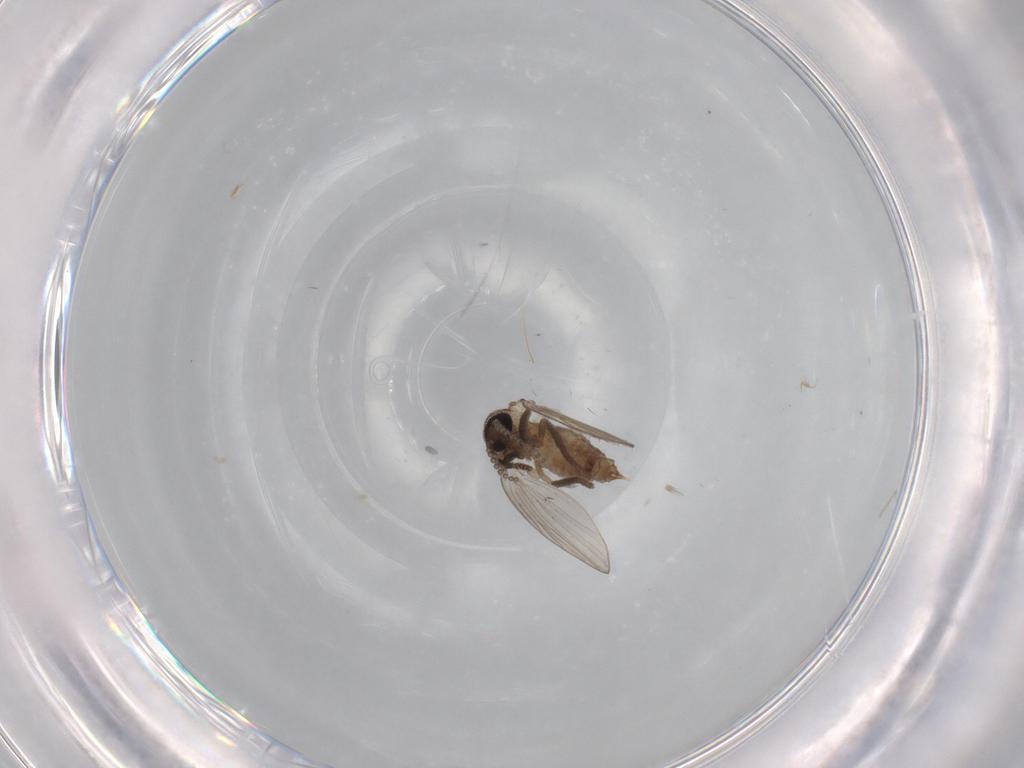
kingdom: Animalia
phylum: Arthropoda
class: Insecta
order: Diptera
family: Psychodidae
